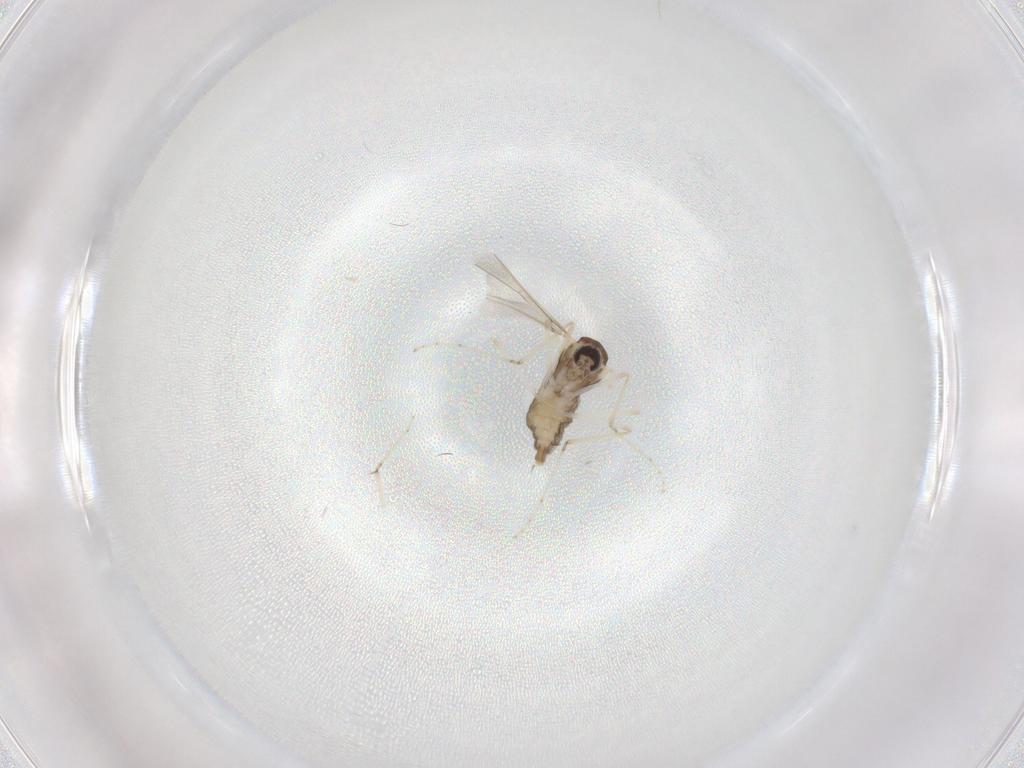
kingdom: Animalia
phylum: Arthropoda
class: Insecta
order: Diptera
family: Cecidomyiidae
